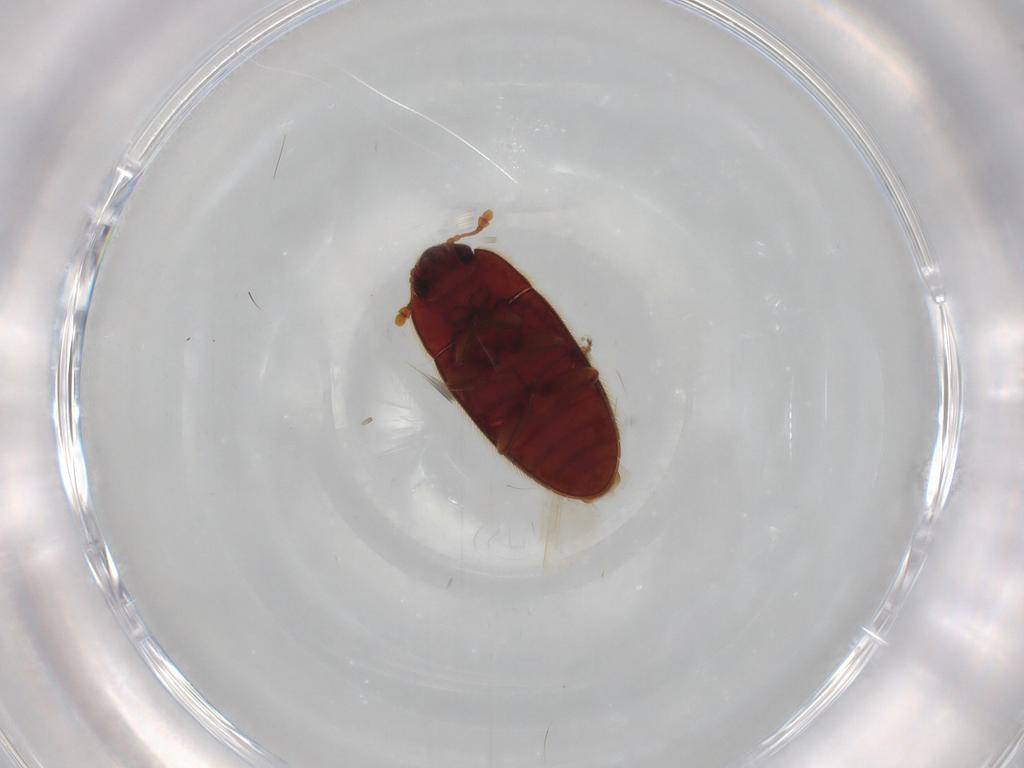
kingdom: Animalia
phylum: Arthropoda
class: Insecta
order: Coleoptera
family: Biphyllidae
